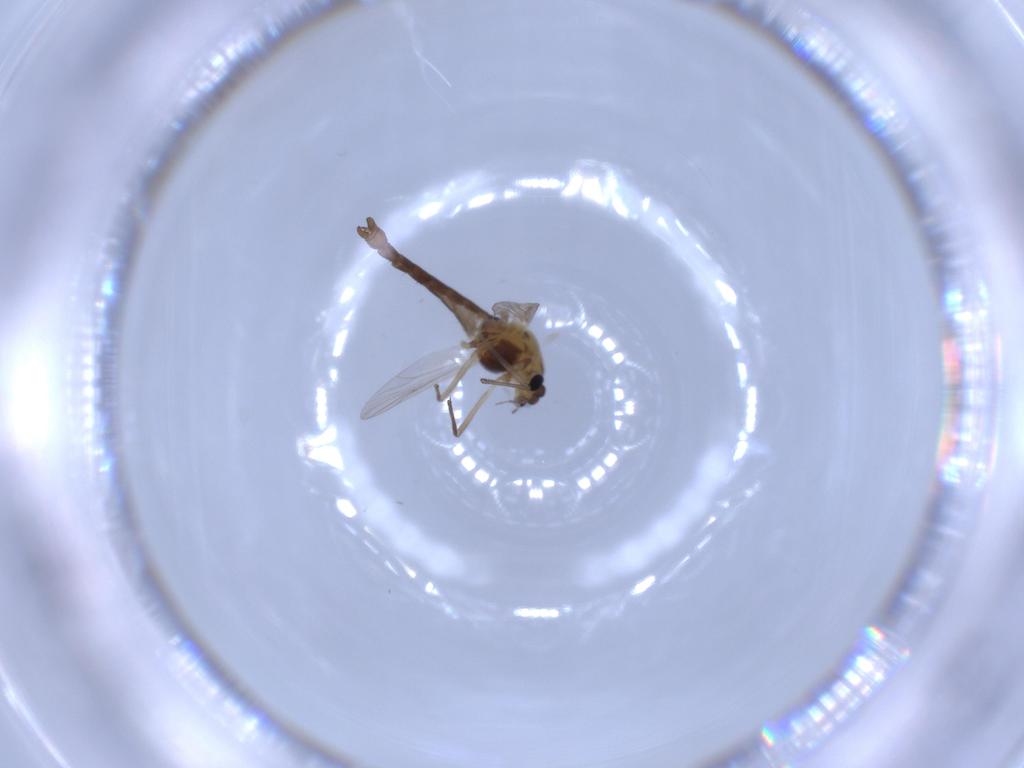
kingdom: Animalia
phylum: Arthropoda
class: Insecta
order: Diptera
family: Chironomidae
